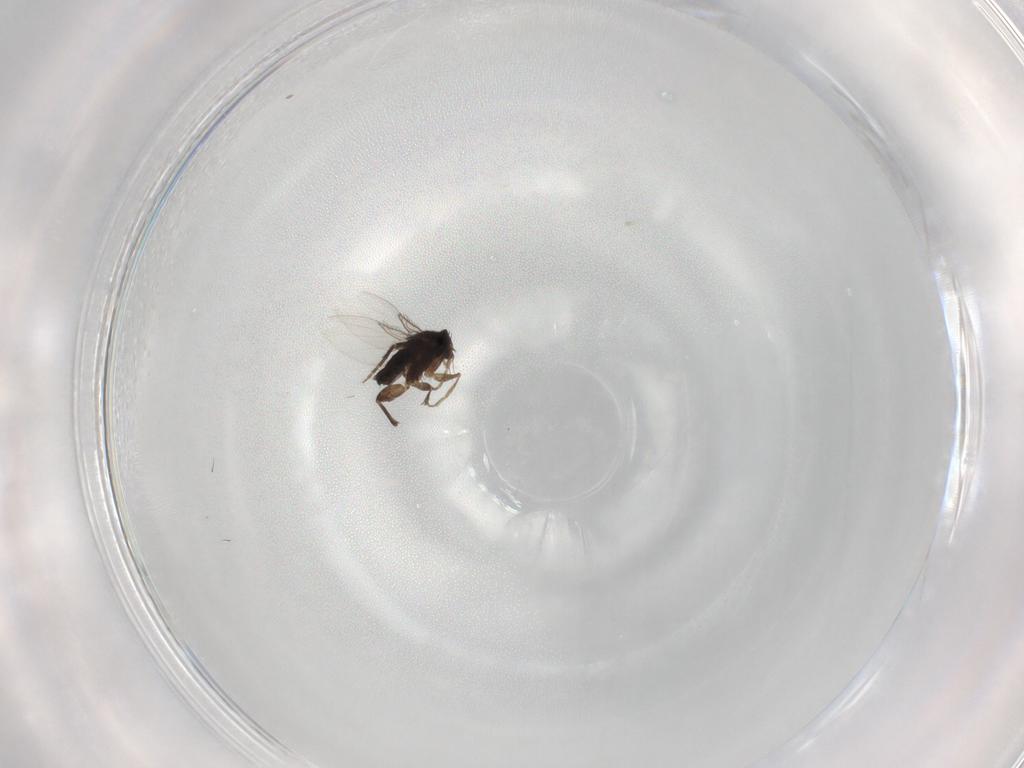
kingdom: Animalia
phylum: Arthropoda
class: Insecta
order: Diptera
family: Phoridae
